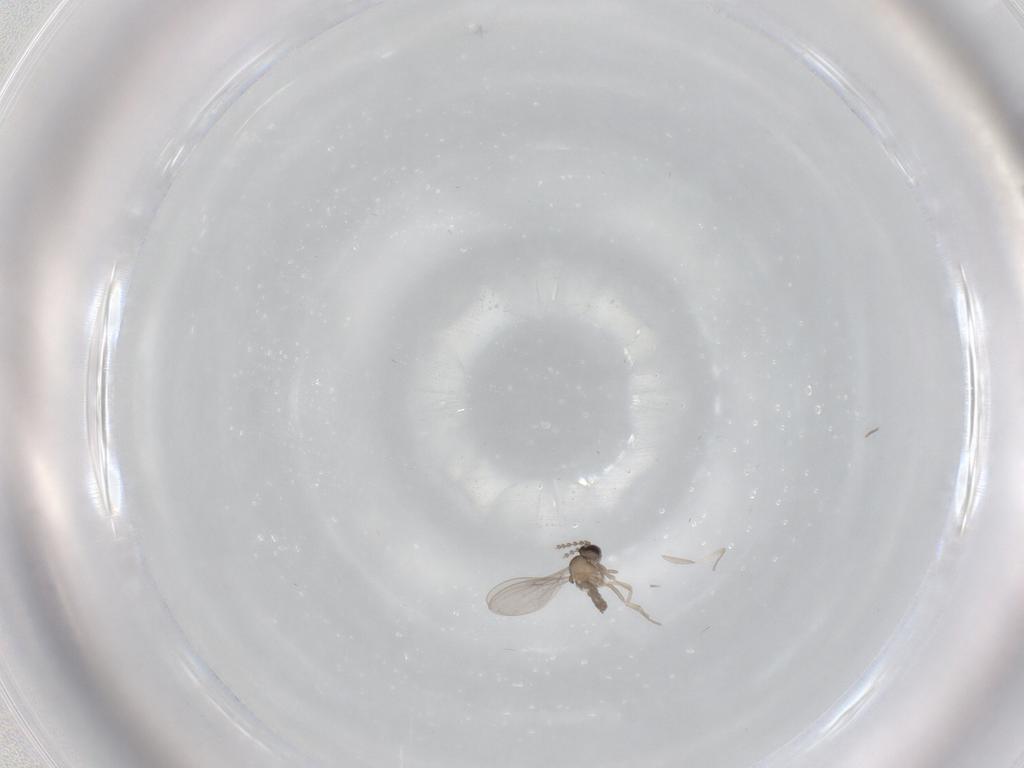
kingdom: Animalia
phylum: Arthropoda
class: Insecta
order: Diptera
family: Cecidomyiidae
